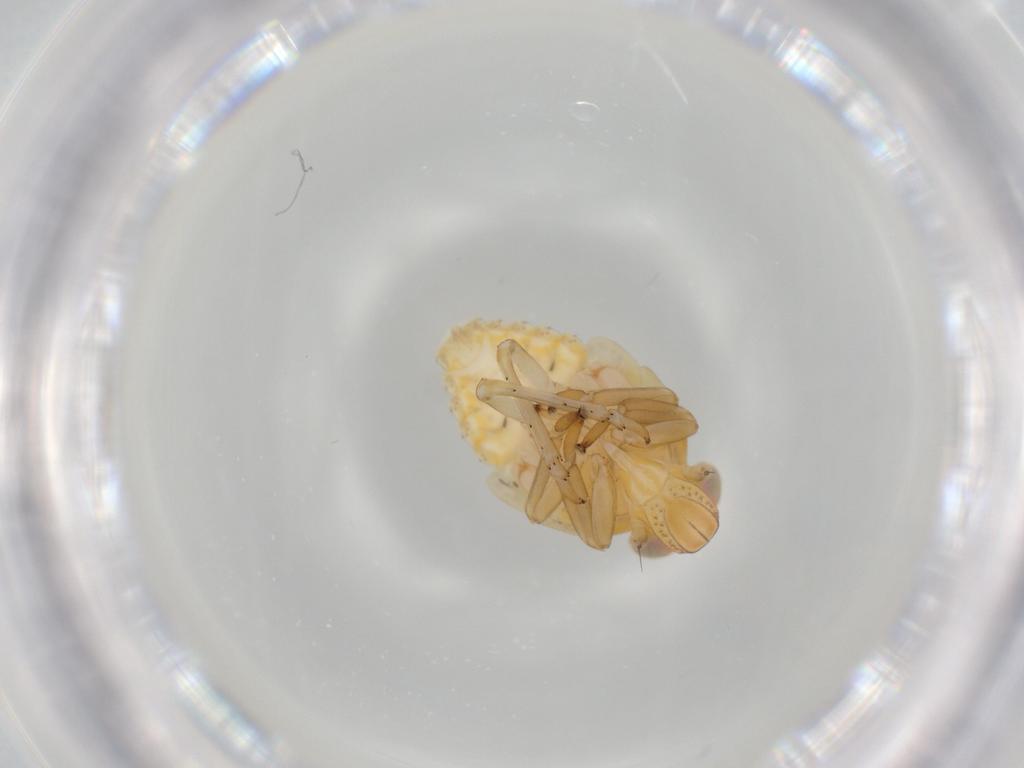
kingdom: Animalia
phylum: Arthropoda
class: Insecta
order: Hemiptera
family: Issidae
